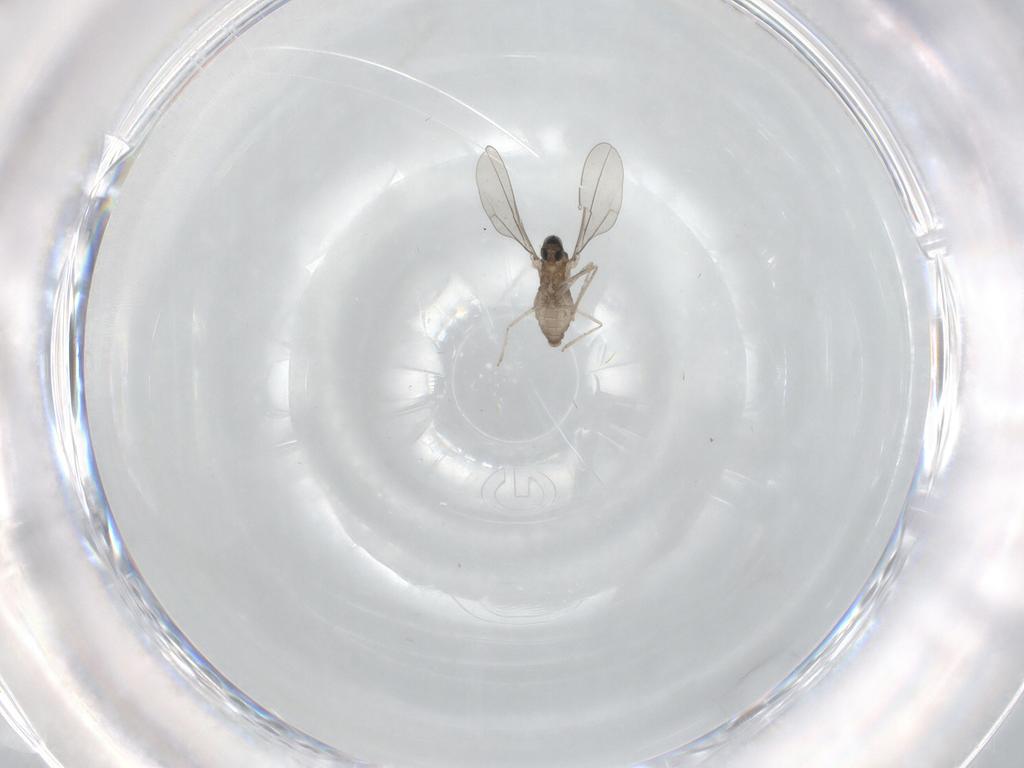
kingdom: Animalia
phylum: Arthropoda
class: Insecta
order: Diptera
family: Cecidomyiidae
